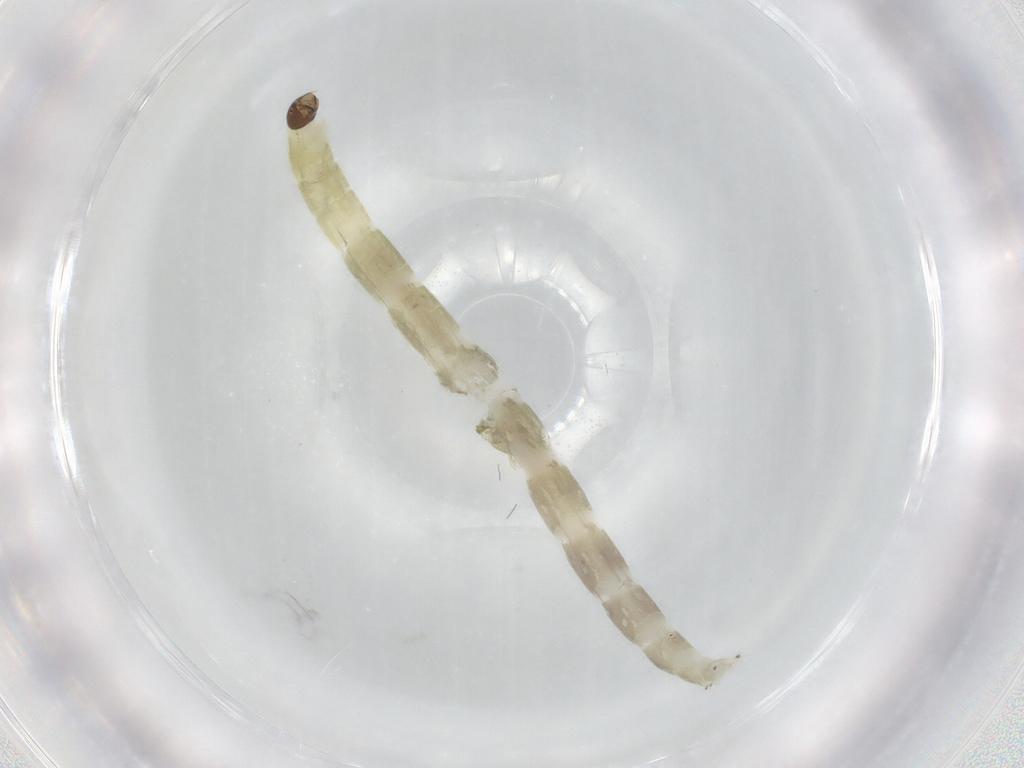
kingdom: Animalia
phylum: Arthropoda
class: Insecta
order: Diptera
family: Chironomidae
